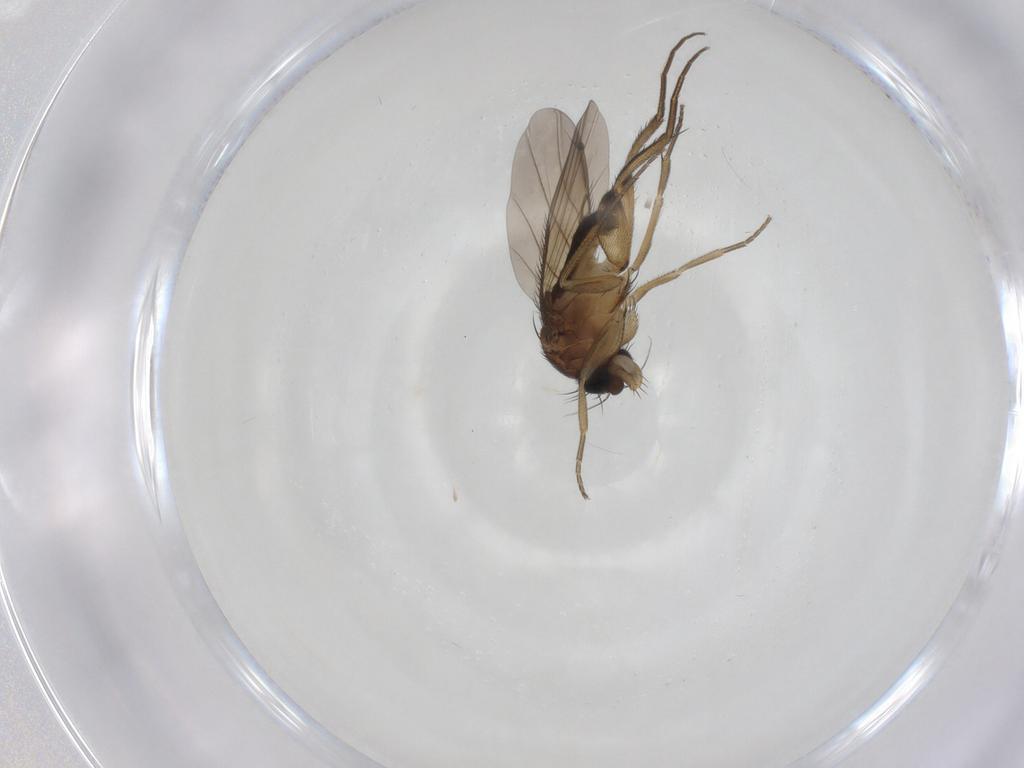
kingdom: Animalia
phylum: Arthropoda
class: Insecta
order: Diptera
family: Phoridae
